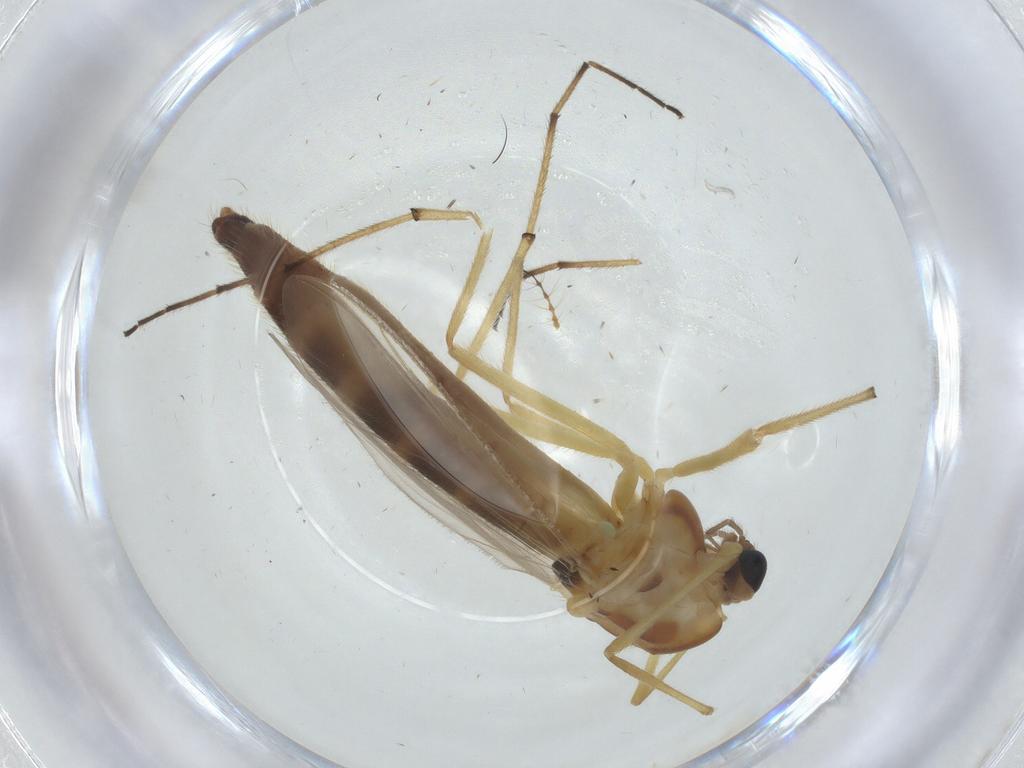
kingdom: Animalia
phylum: Arthropoda
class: Insecta
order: Diptera
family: Chironomidae
